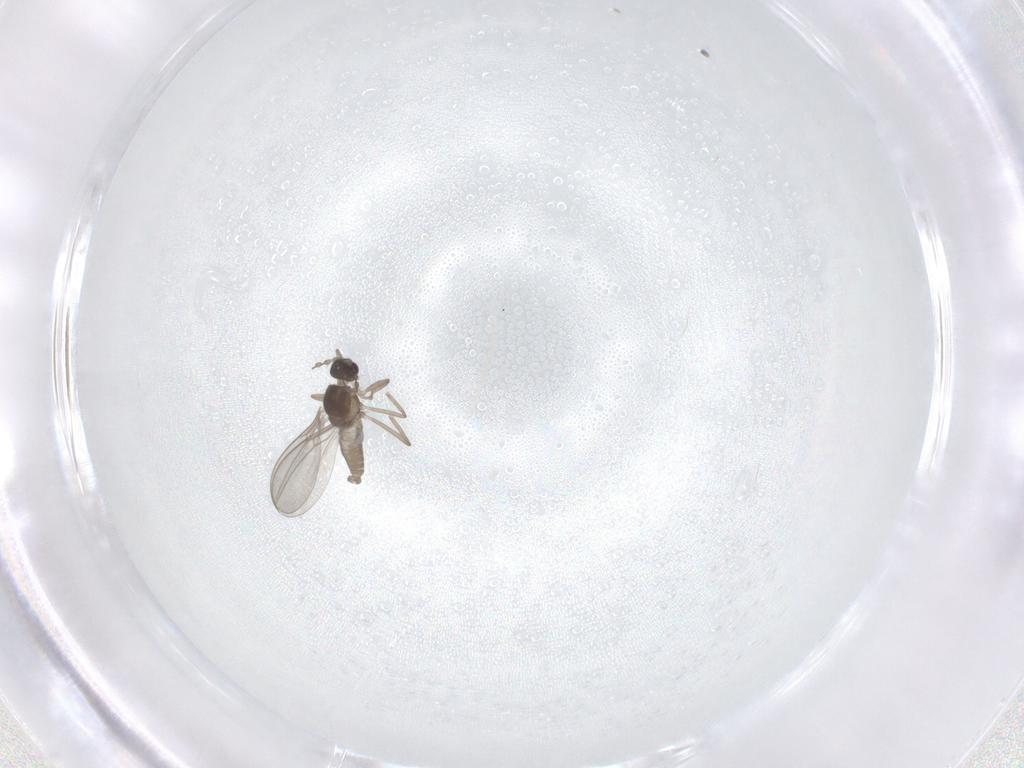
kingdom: Animalia
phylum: Arthropoda
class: Insecta
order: Diptera
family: Cecidomyiidae
